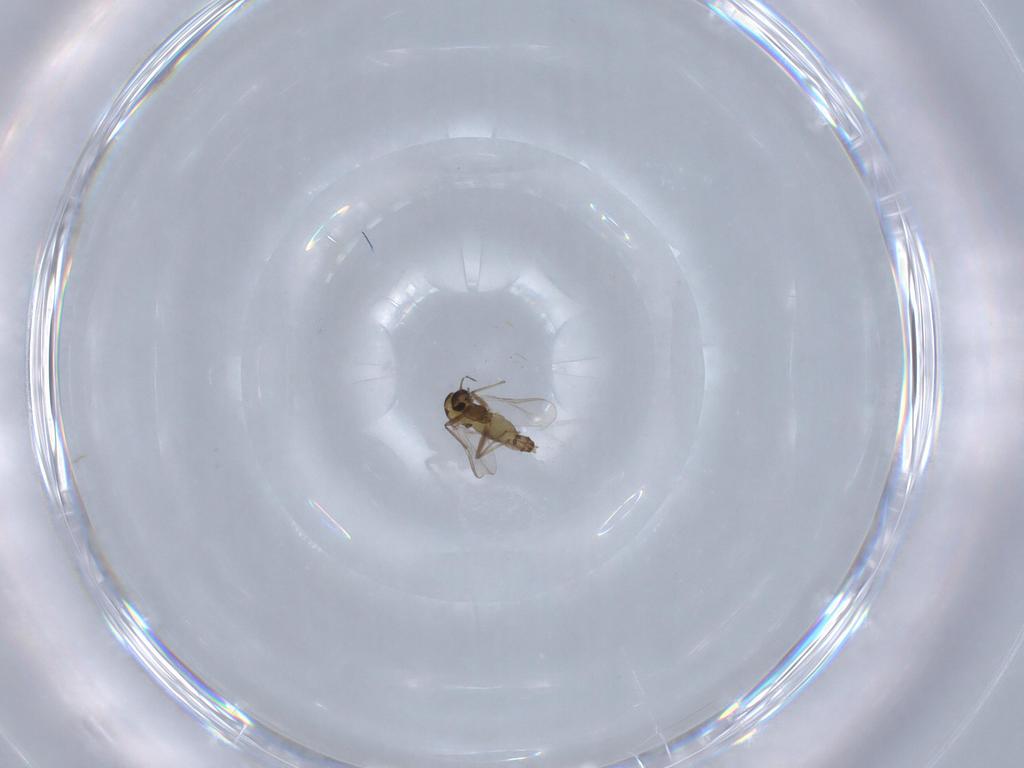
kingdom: Animalia
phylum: Arthropoda
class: Insecta
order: Diptera
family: Chironomidae
